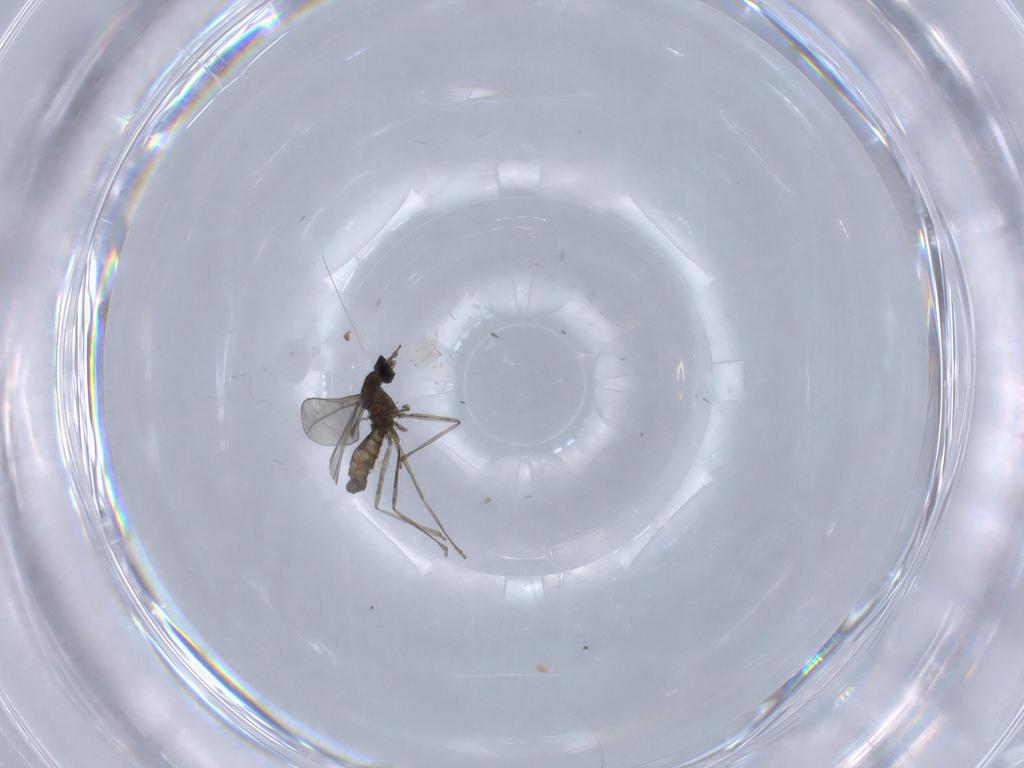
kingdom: Animalia
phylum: Arthropoda
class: Insecta
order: Diptera
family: Dolichopodidae
